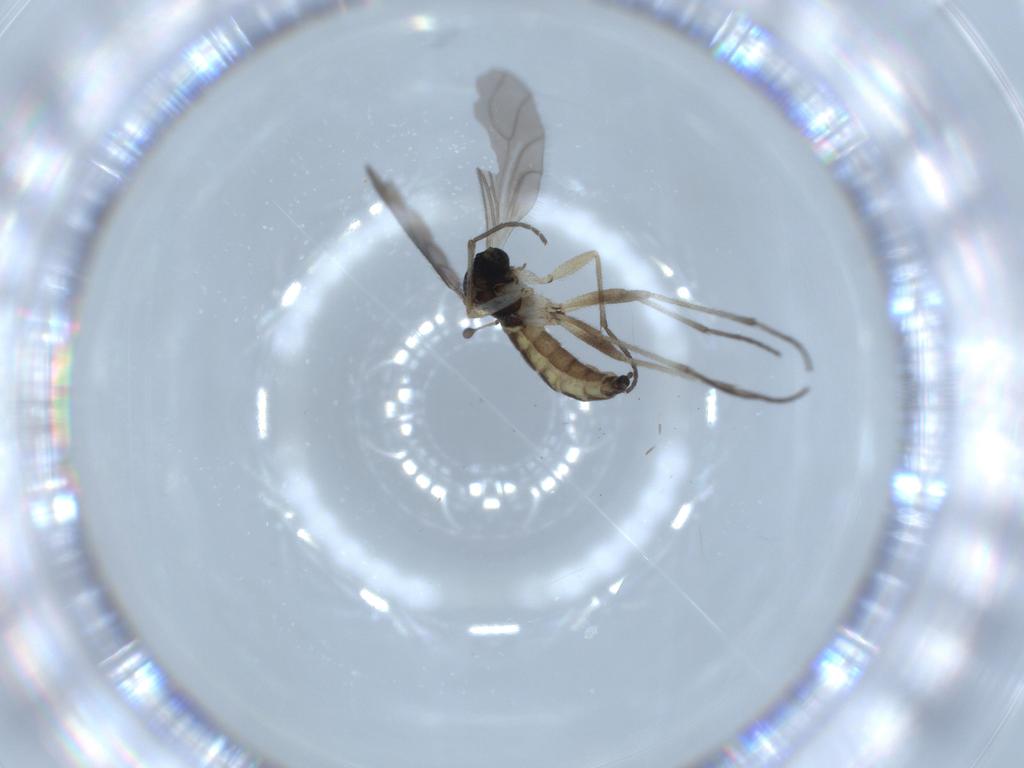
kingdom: Animalia
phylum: Arthropoda
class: Insecta
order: Diptera
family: Sciaridae
